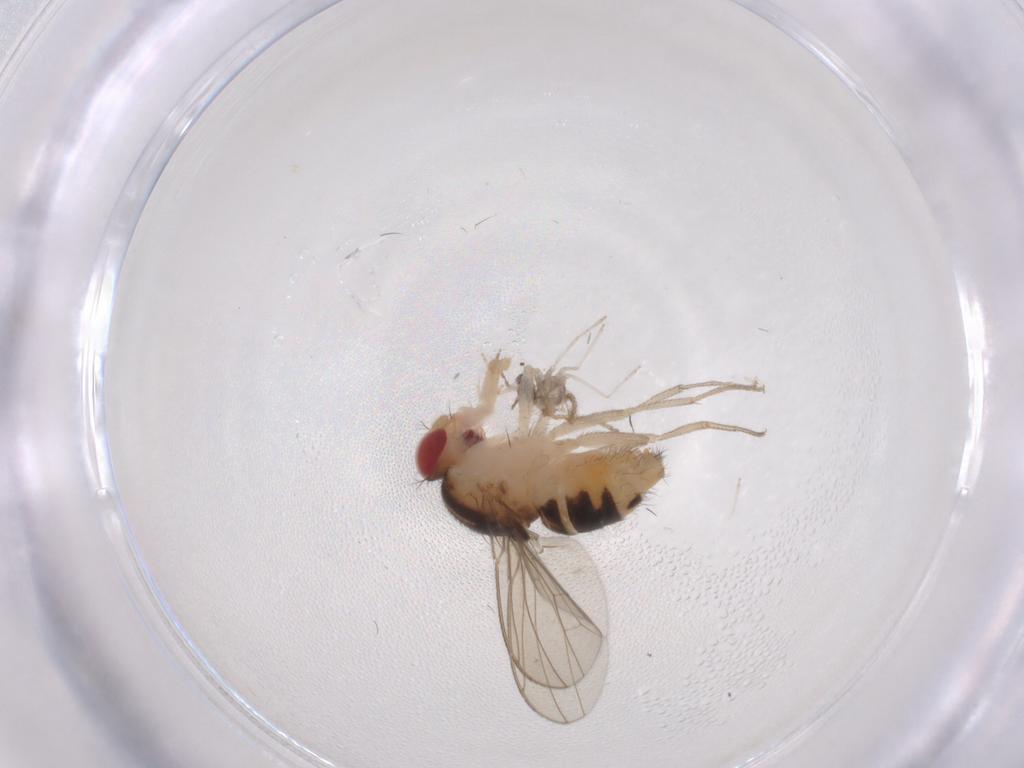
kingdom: Animalia
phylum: Arthropoda
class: Insecta
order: Diptera
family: Drosophilidae
